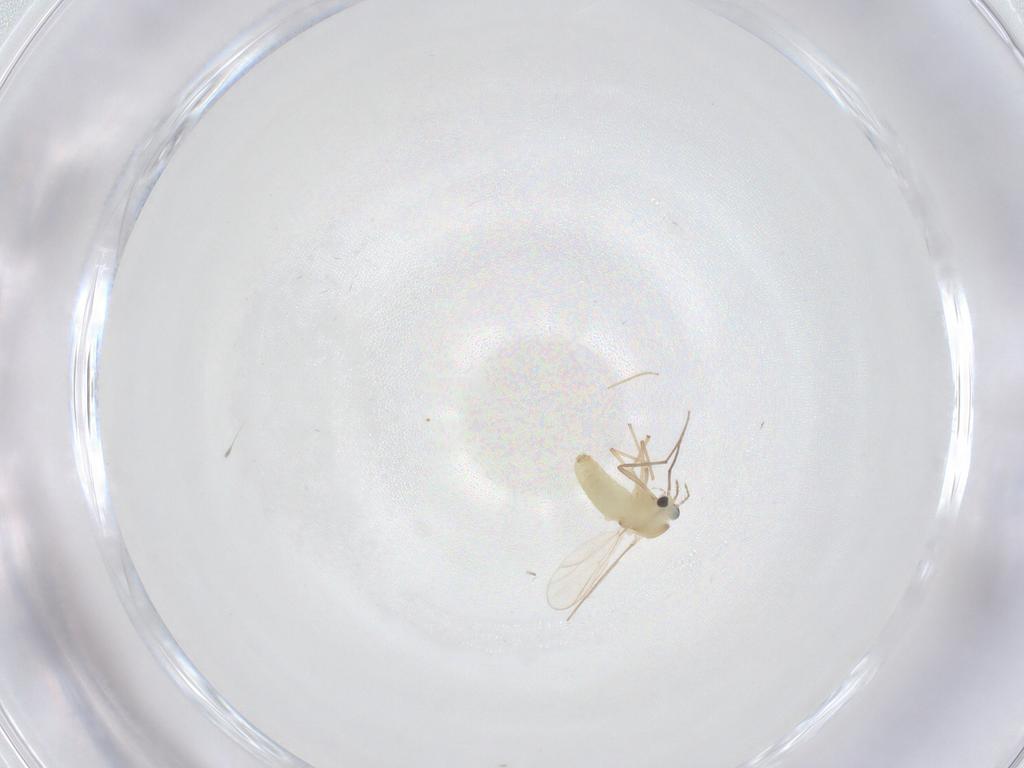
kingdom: Animalia
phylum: Arthropoda
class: Insecta
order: Diptera
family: Chironomidae
